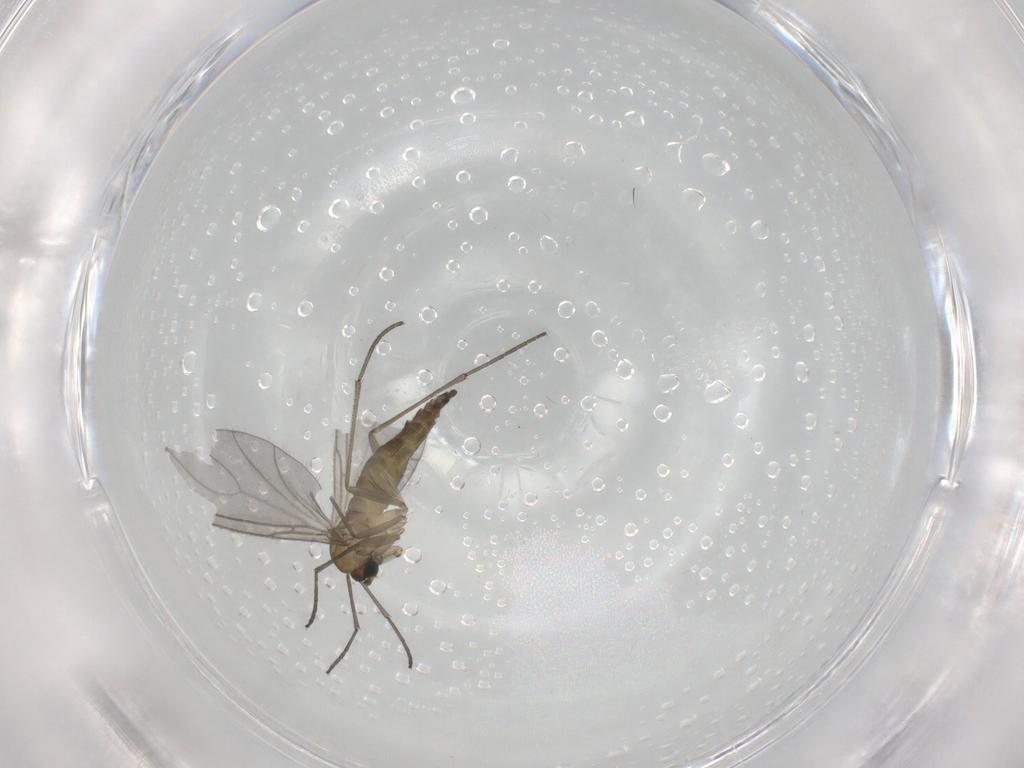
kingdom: Animalia
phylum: Arthropoda
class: Insecta
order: Diptera
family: Sciaridae
